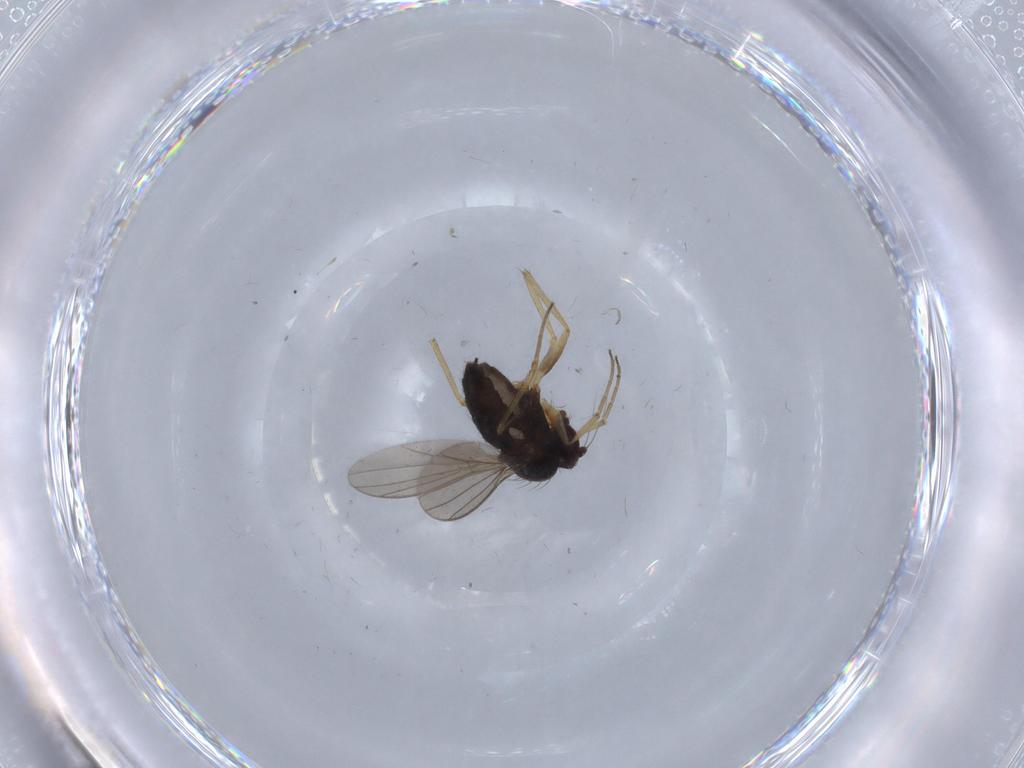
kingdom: Animalia
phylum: Arthropoda
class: Insecta
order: Diptera
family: Dolichopodidae
